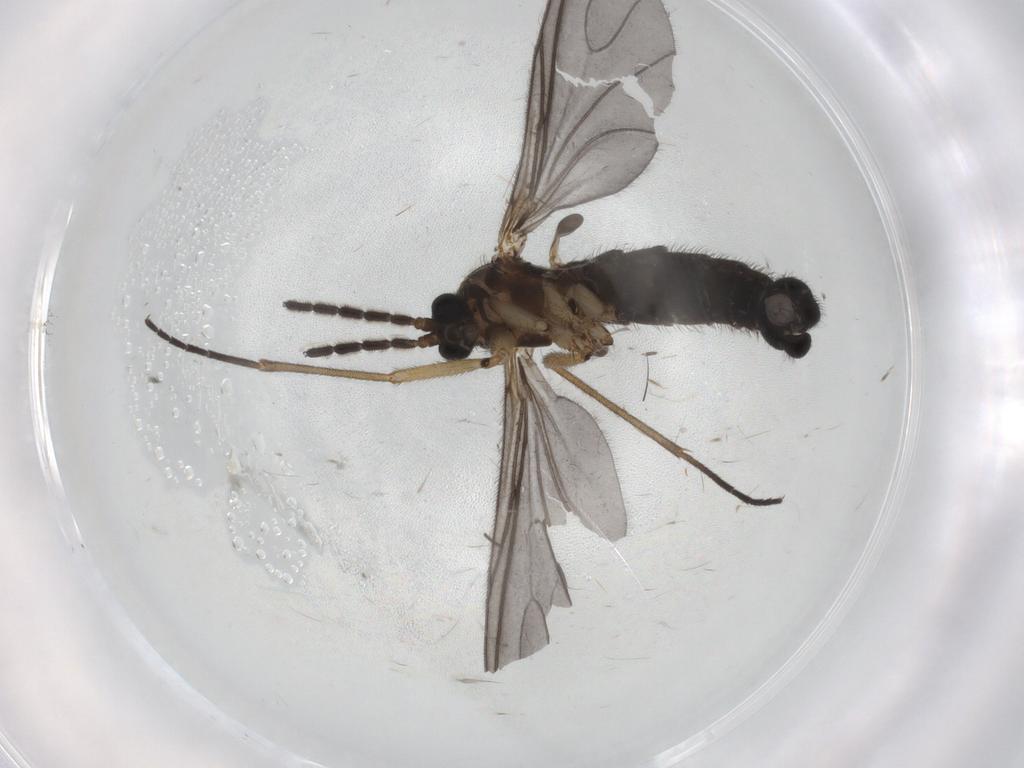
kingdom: Animalia
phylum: Arthropoda
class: Insecta
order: Diptera
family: Sciaridae
